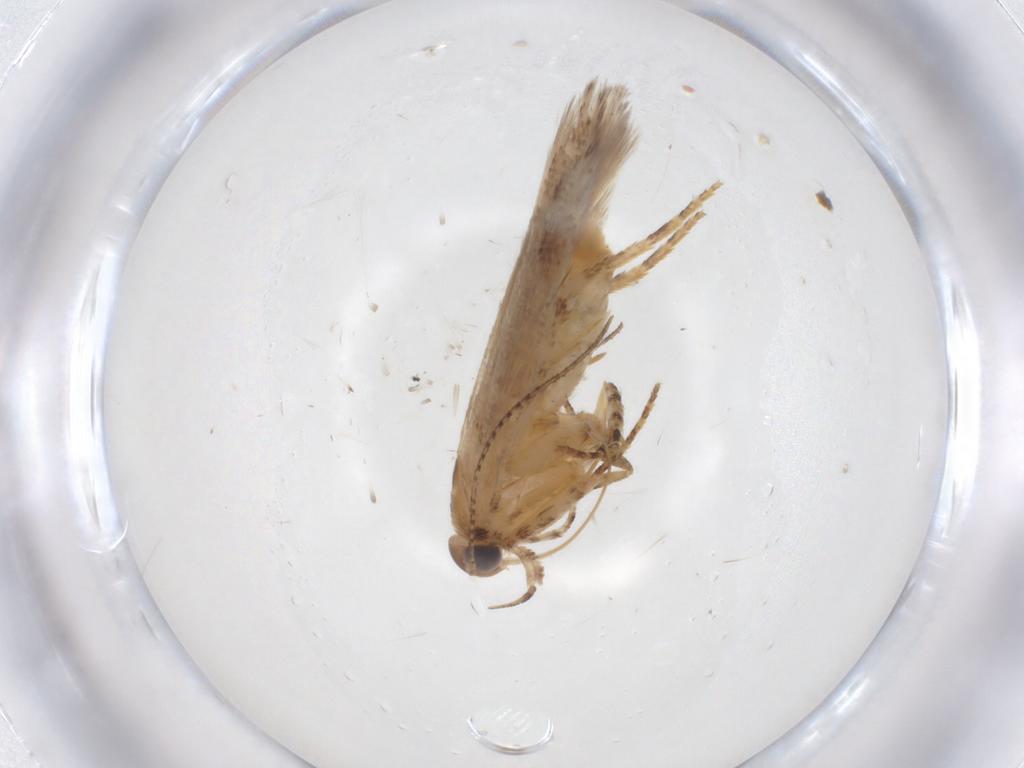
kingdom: Animalia
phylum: Arthropoda
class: Insecta
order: Lepidoptera
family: Gelechiidae
